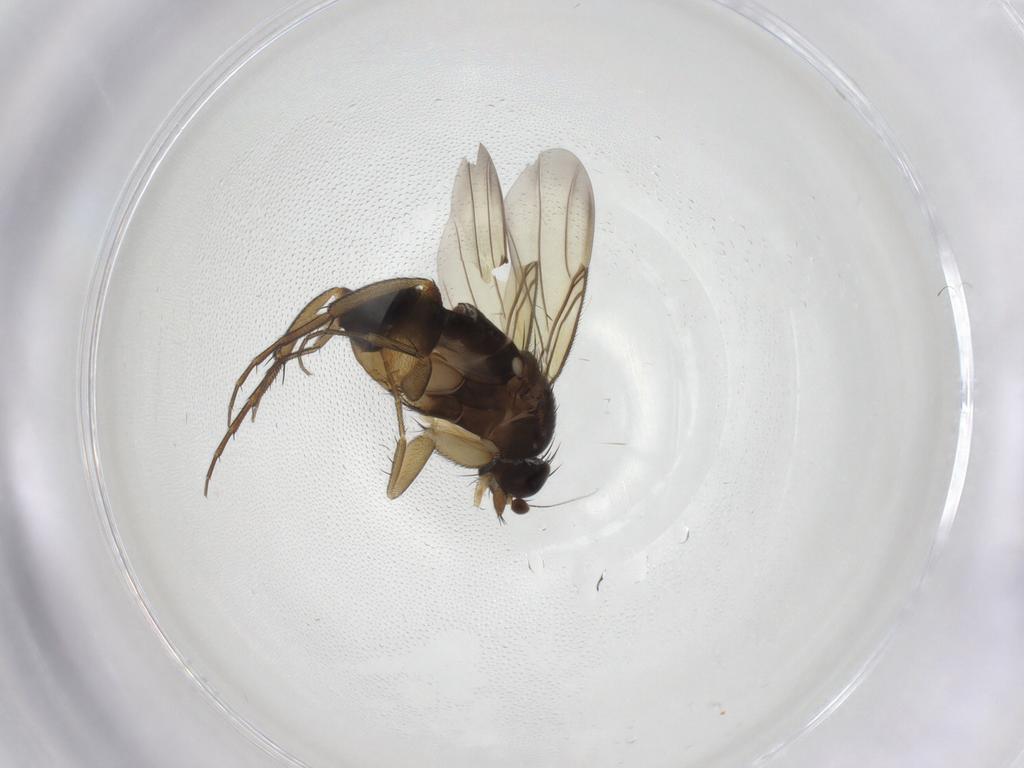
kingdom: Animalia
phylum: Arthropoda
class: Insecta
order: Diptera
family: Phoridae
